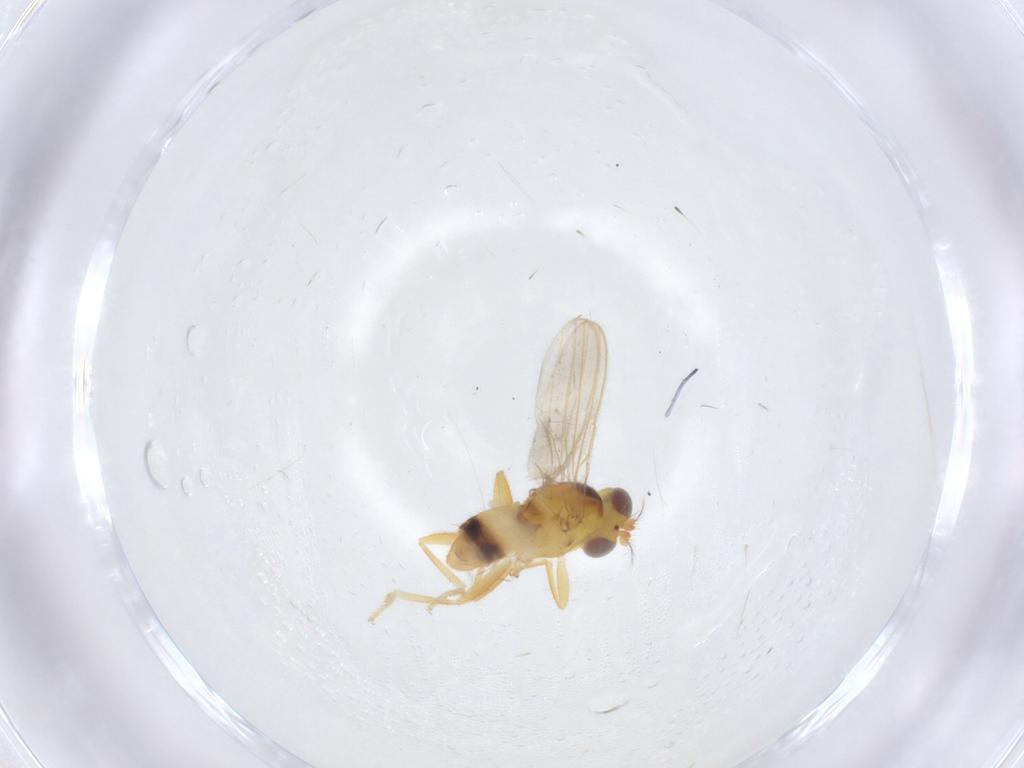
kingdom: Animalia
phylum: Arthropoda
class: Insecta
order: Diptera
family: Periscelididae
